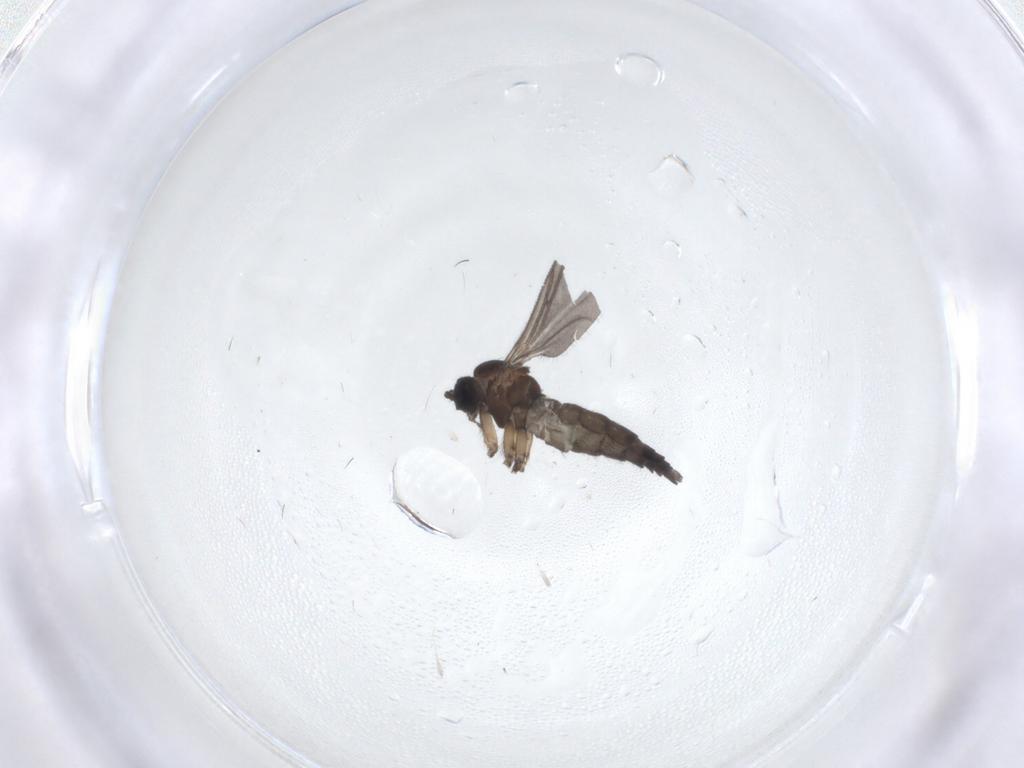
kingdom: Animalia
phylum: Arthropoda
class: Insecta
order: Diptera
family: Sciaridae
